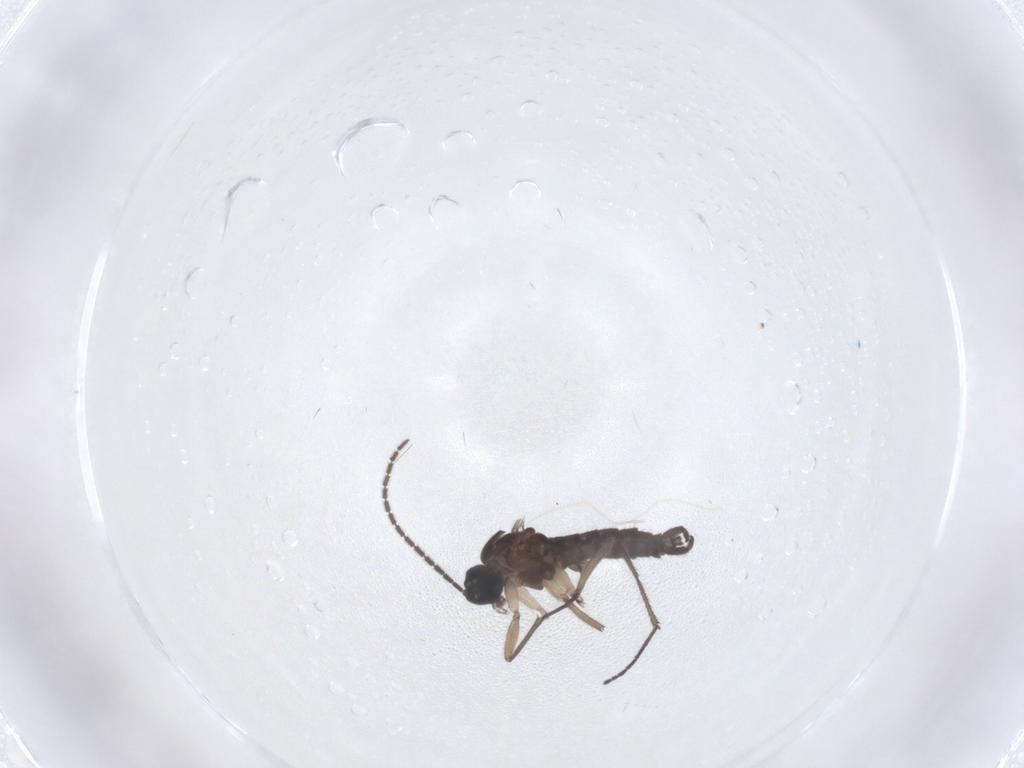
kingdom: Animalia
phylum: Arthropoda
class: Insecta
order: Diptera
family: Sciaridae
